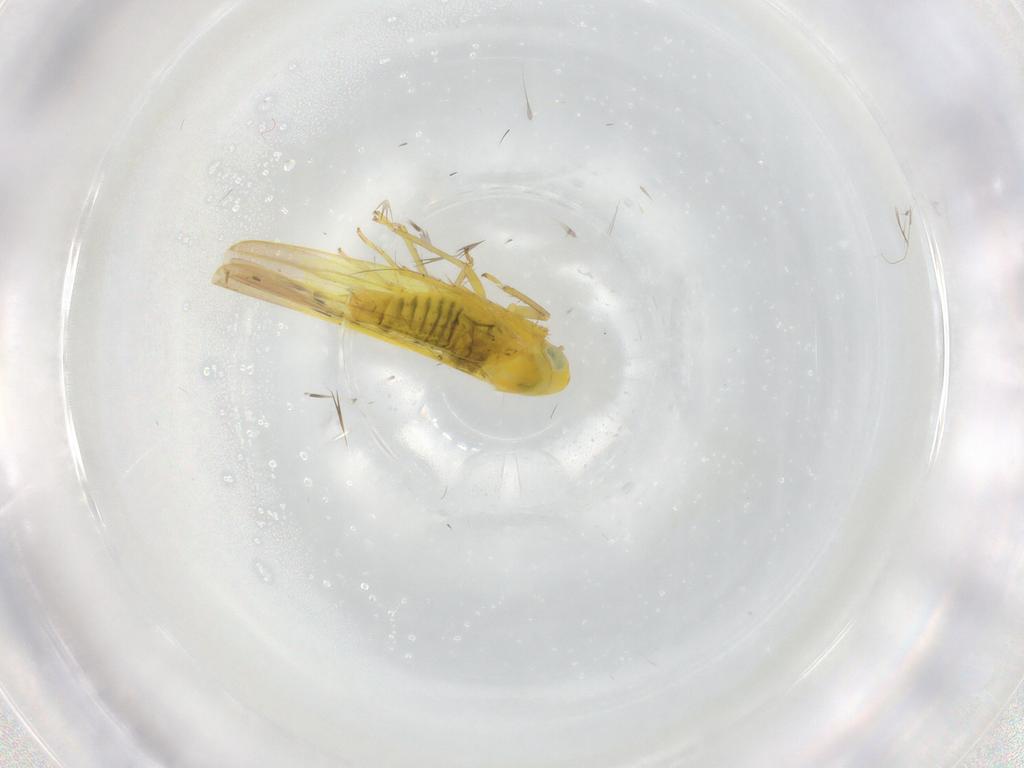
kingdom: Animalia
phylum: Arthropoda
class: Insecta
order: Hemiptera
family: Cicadellidae
